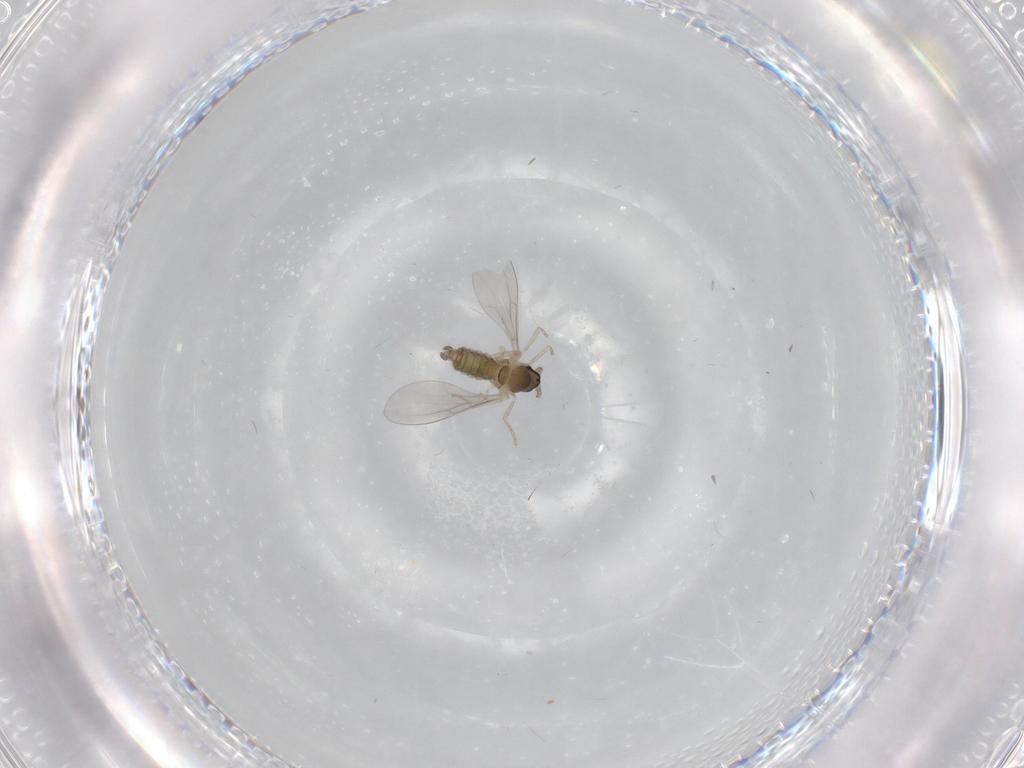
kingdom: Animalia
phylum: Arthropoda
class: Insecta
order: Diptera
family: Cecidomyiidae
